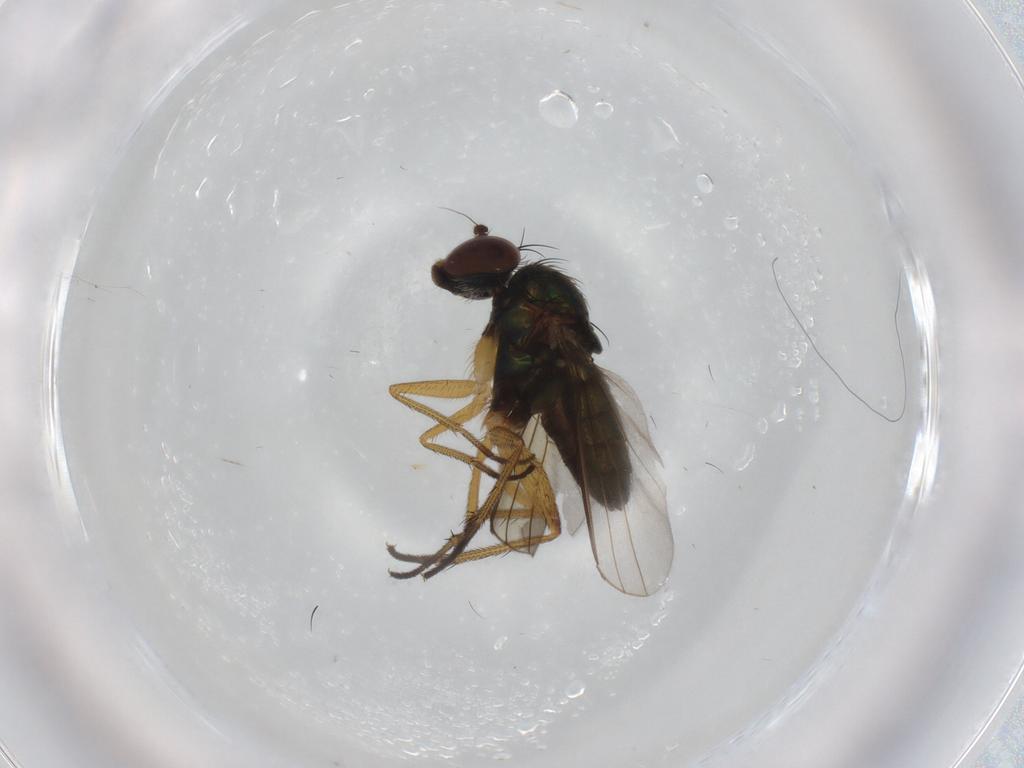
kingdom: Animalia
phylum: Arthropoda
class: Insecta
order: Diptera
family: Dolichopodidae
